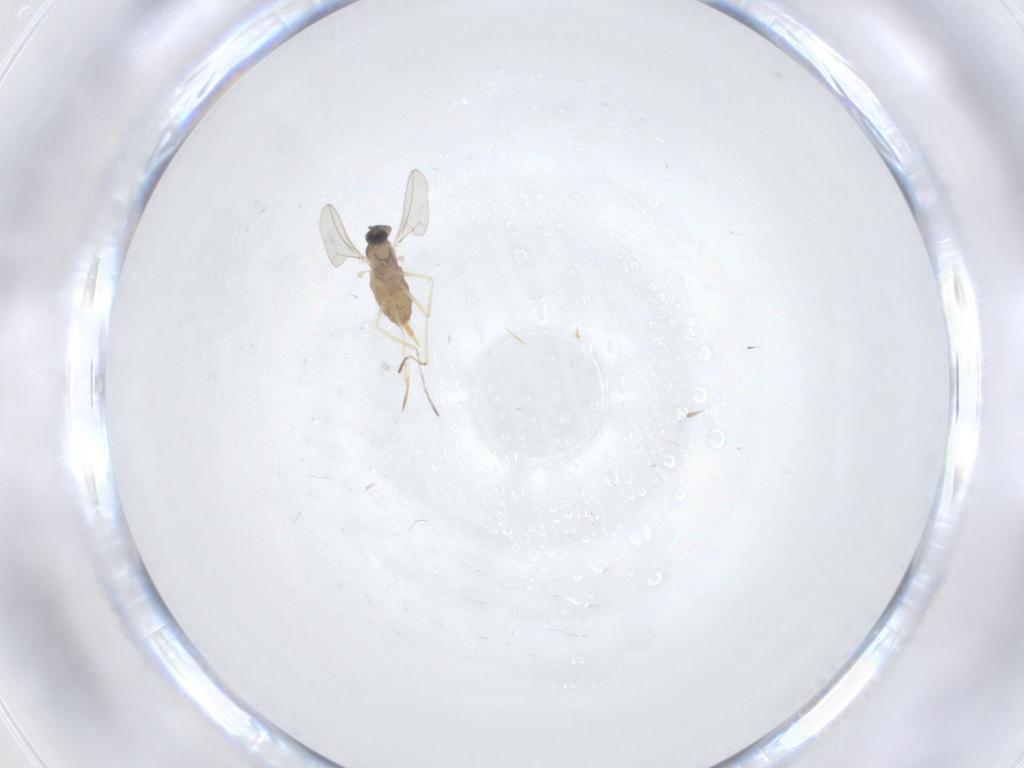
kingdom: Animalia
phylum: Arthropoda
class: Insecta
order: Diptera
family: Cecidomyiidae
